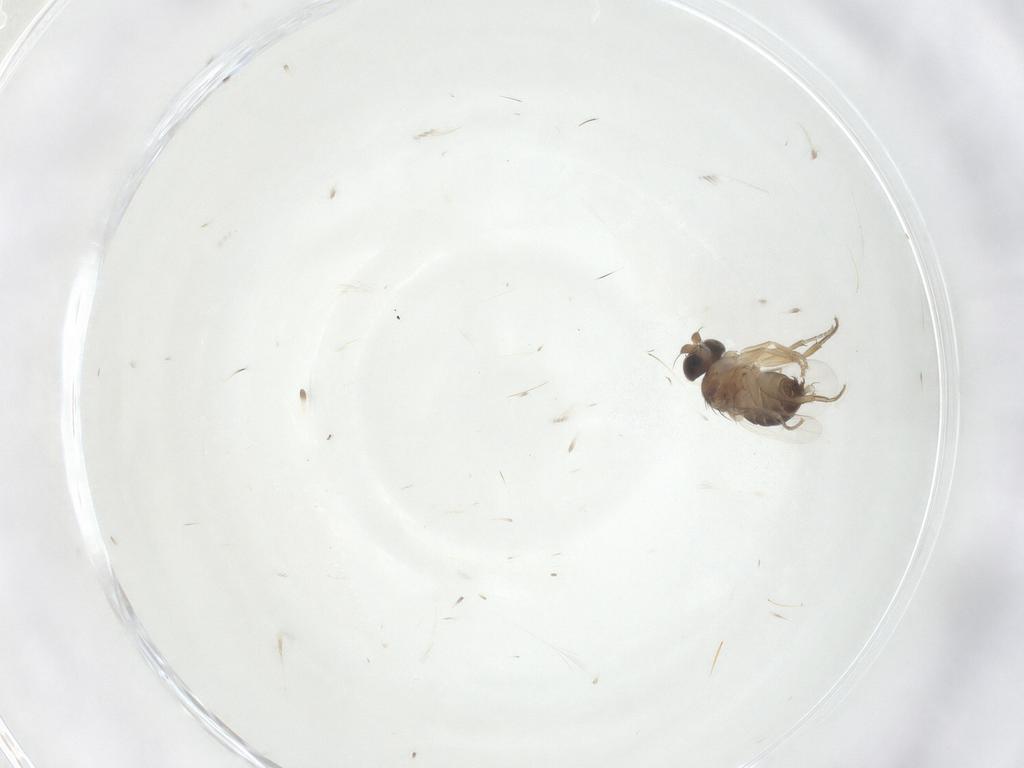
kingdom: Animalia
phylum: Arthropoda
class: Insecta
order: Diptera
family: Phoridae
